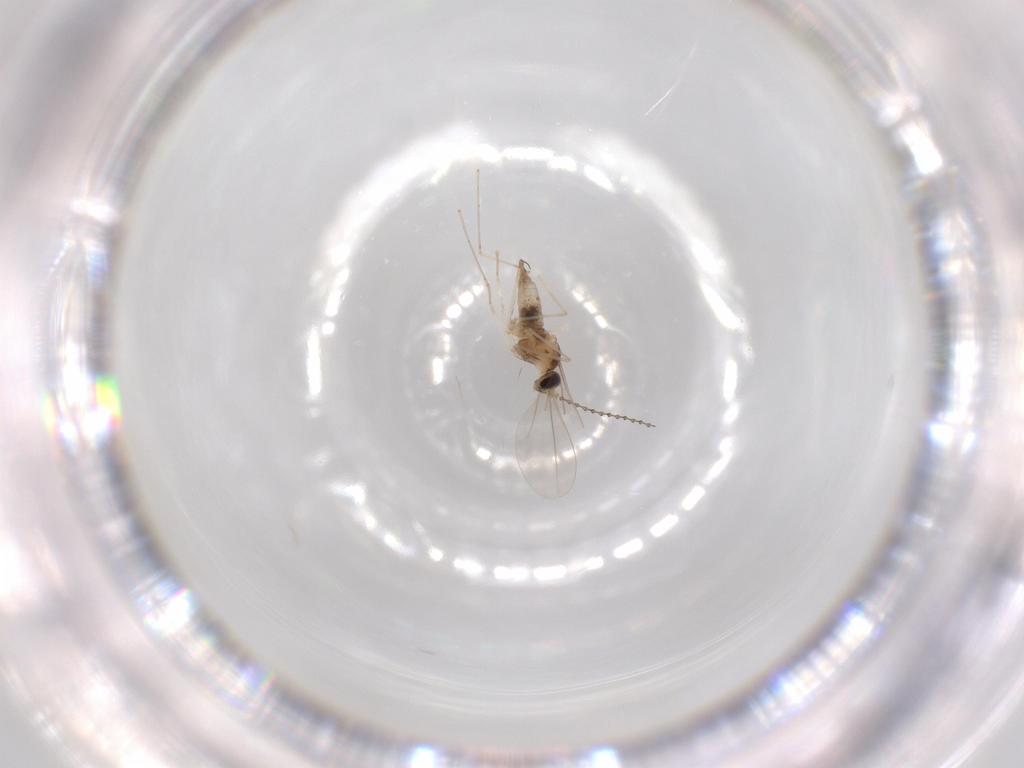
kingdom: Animalia
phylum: Arthropoda
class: Insecta
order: Diptera
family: Cecidomyiidae
